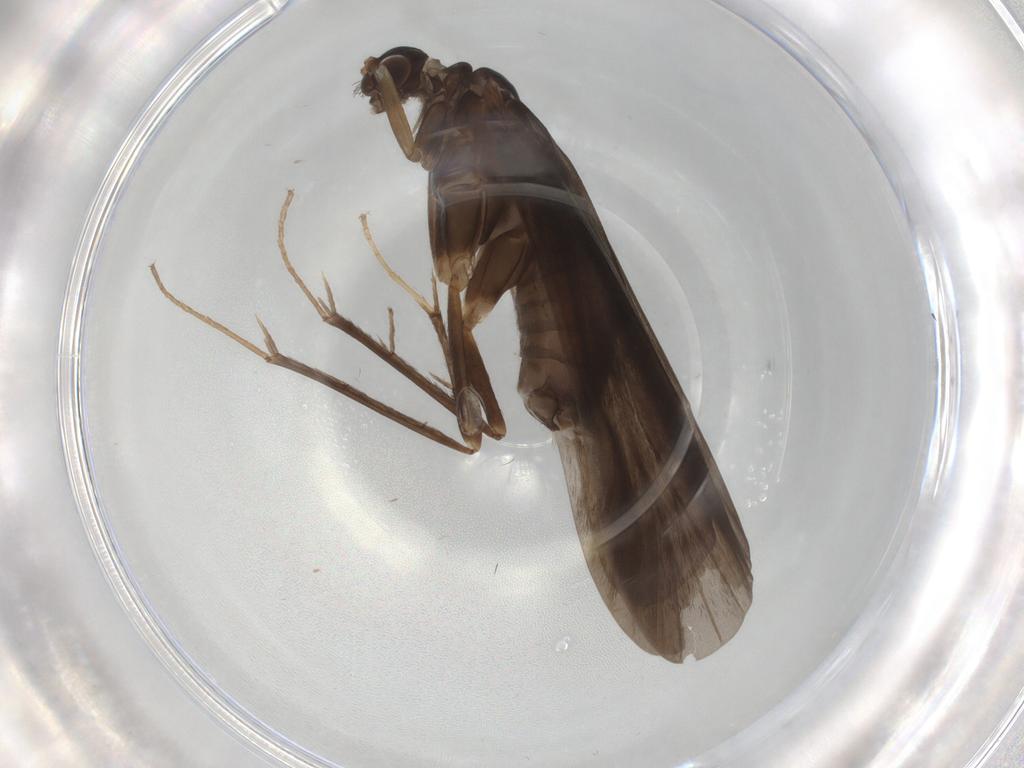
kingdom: Animalia
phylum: Arthropoda
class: Insecta
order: Trichoptera
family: Hydropsychidae
